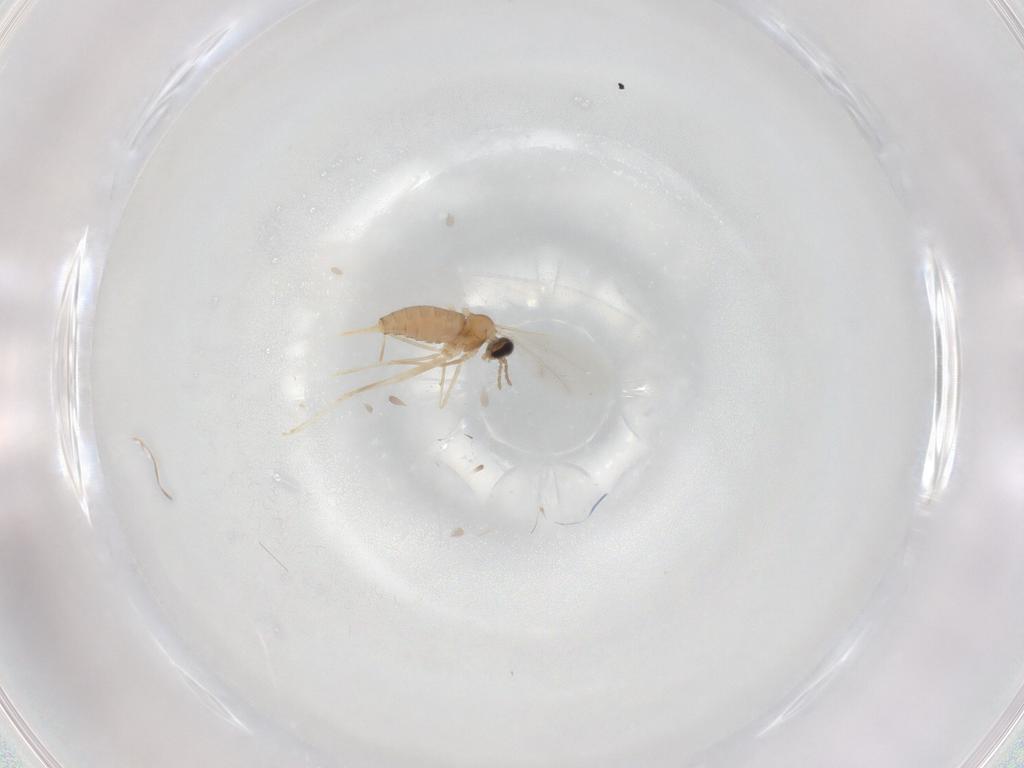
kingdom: Animalia
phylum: Arthropoda
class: Insecta
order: Diptera
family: Cecidomyiidae
